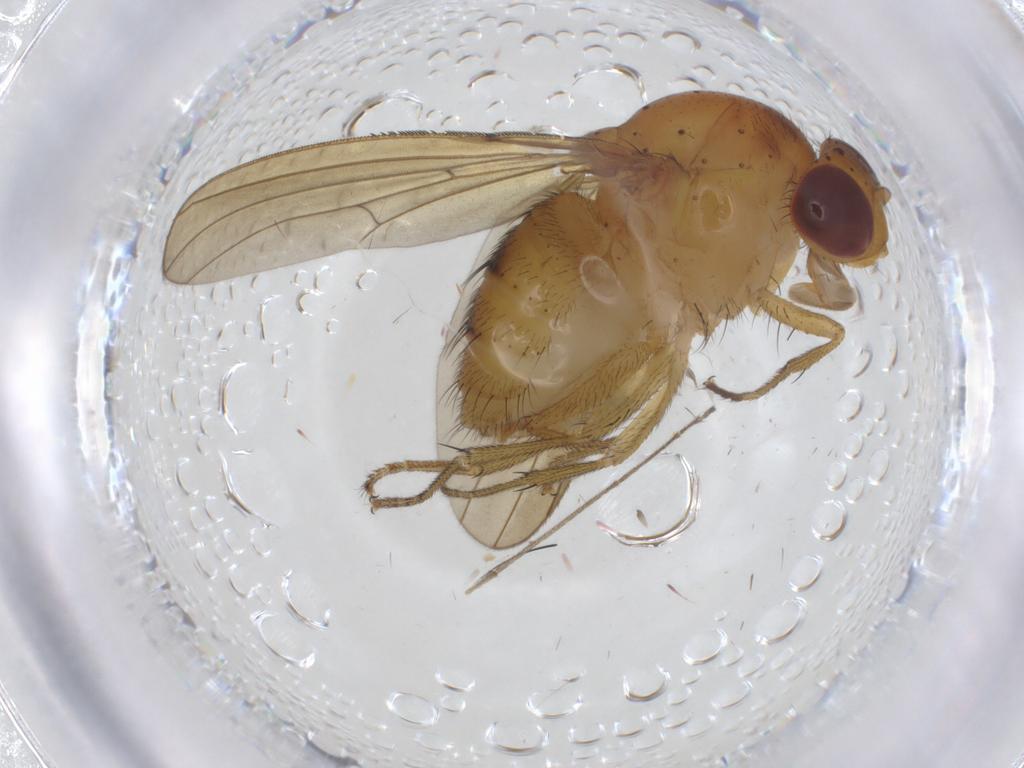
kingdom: Animalia
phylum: Arthropoda
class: Insecta
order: Diptera
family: Sciaridae
